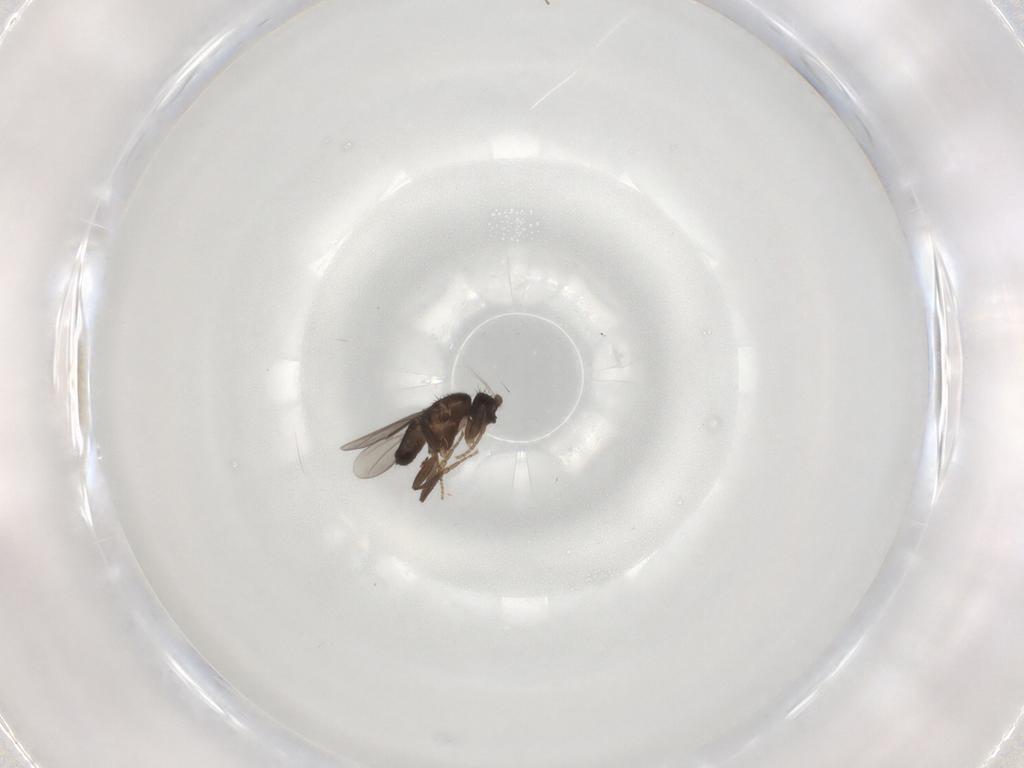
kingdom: Animalia
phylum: Arthropoda
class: Insecta
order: Diptera
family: Sphaeroceridae
